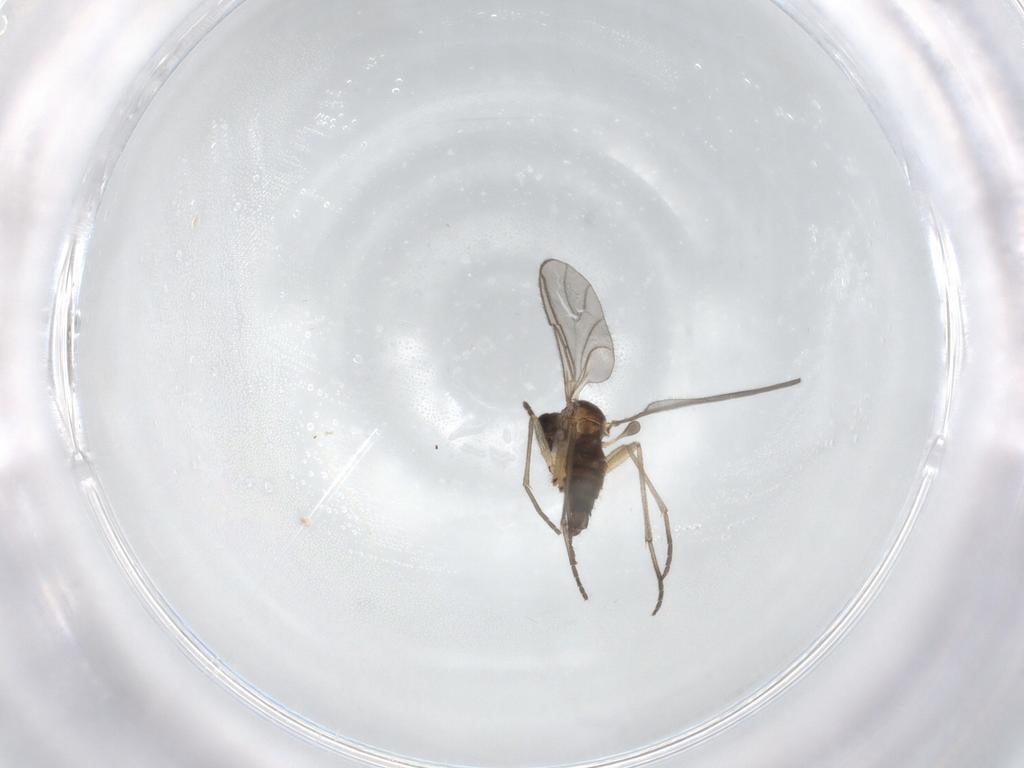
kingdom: Animalia
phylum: Arthropoda
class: Insecta
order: Diptera
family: Sciaridae
